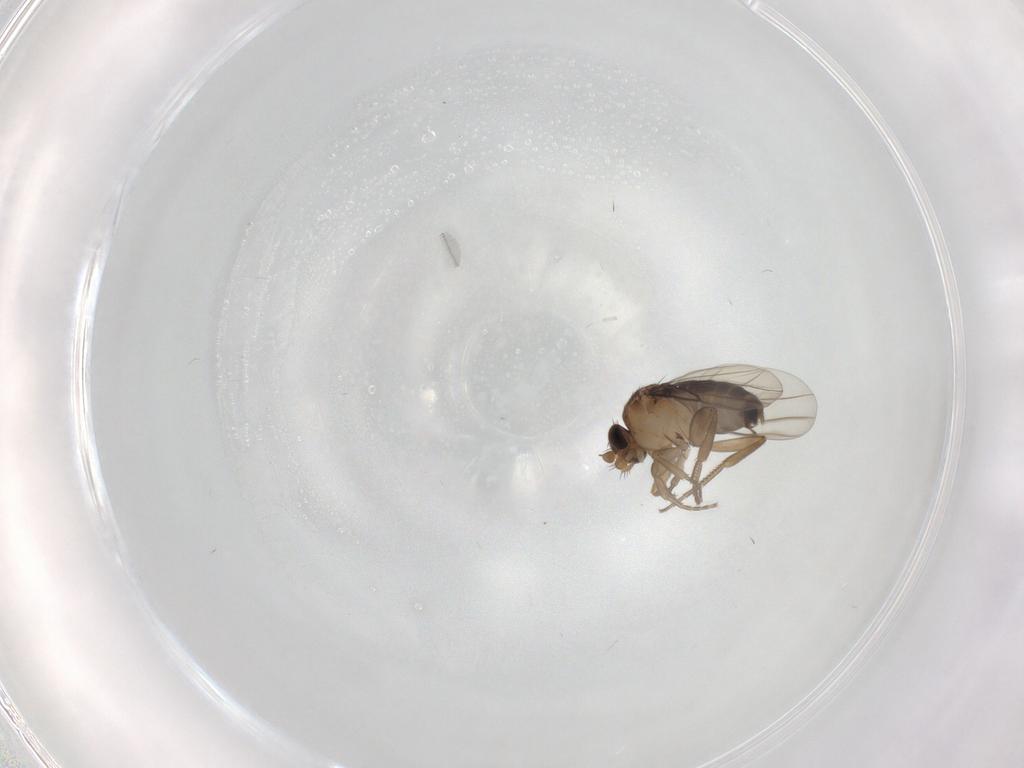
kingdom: Animalia
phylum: Arthropoda
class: Insecta
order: Diptera
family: Phoridae
